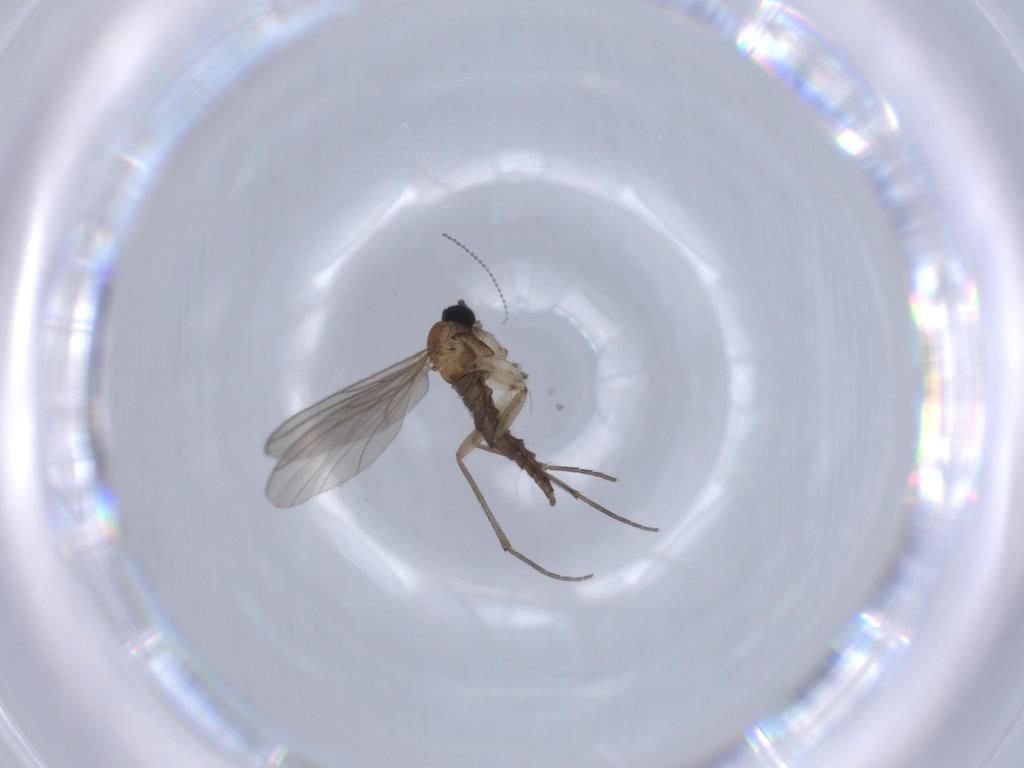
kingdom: Animalia
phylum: Arthropoda
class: Insecta
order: Diptera
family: Sciaridae
